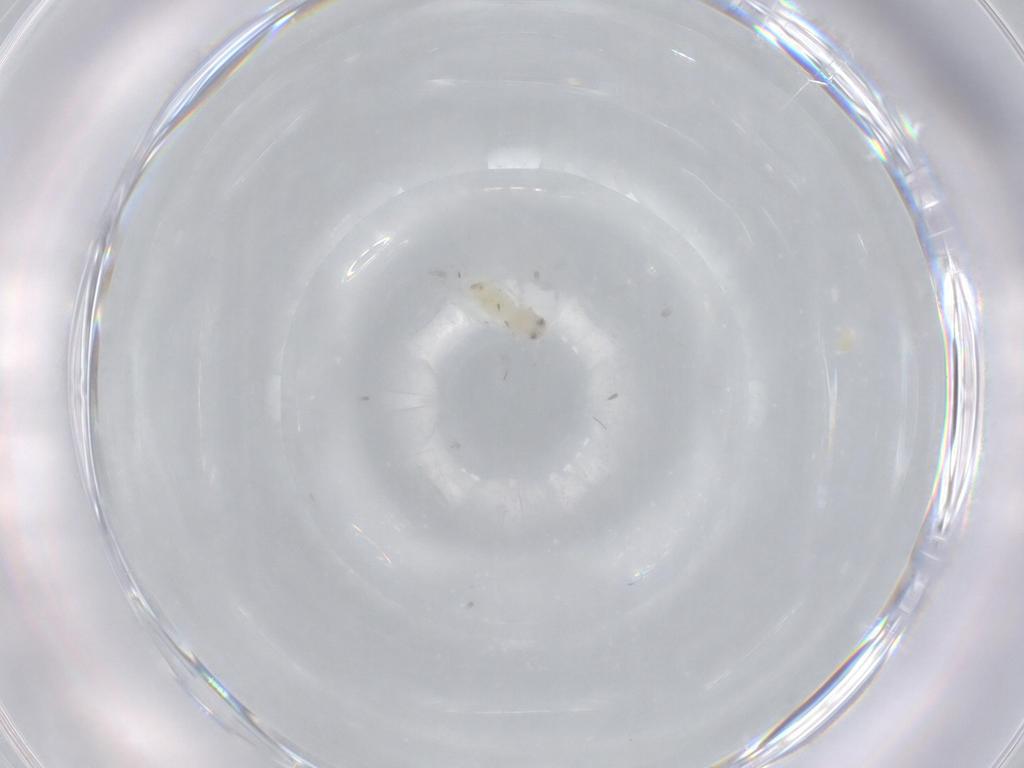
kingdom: Animalia
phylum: Arthropoda
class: Insecta
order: Hemiptera
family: Aleyrodidae
